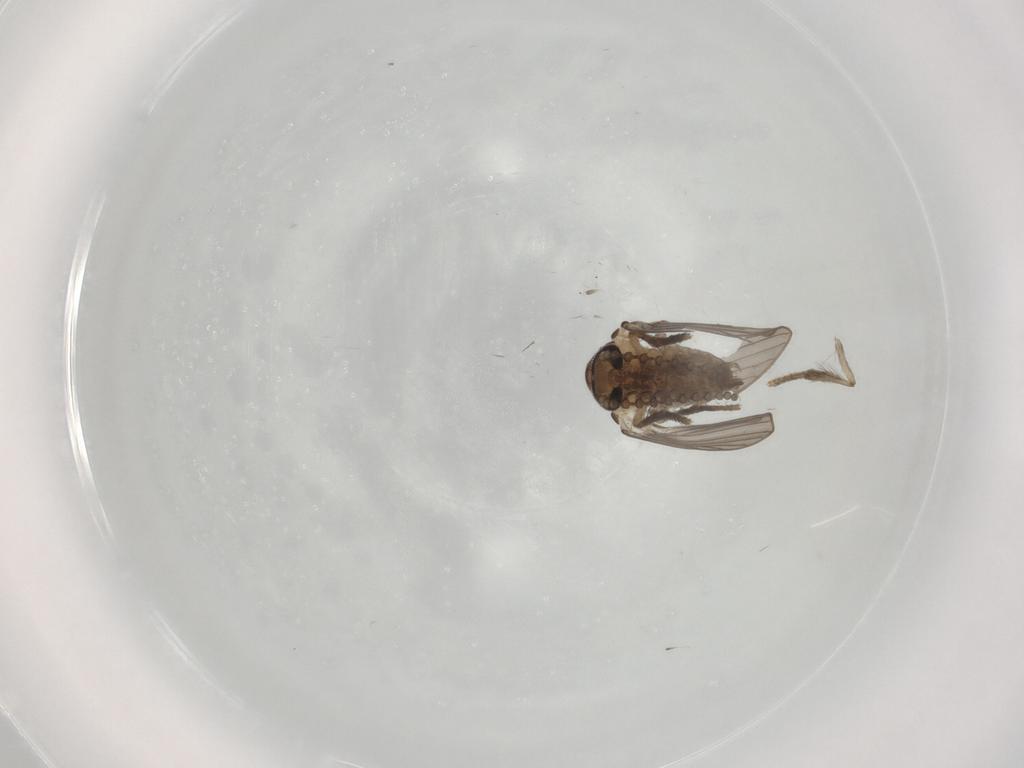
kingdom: Animalia
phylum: Arthropoda
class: Insecta
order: Diptera
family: Psychodidae
